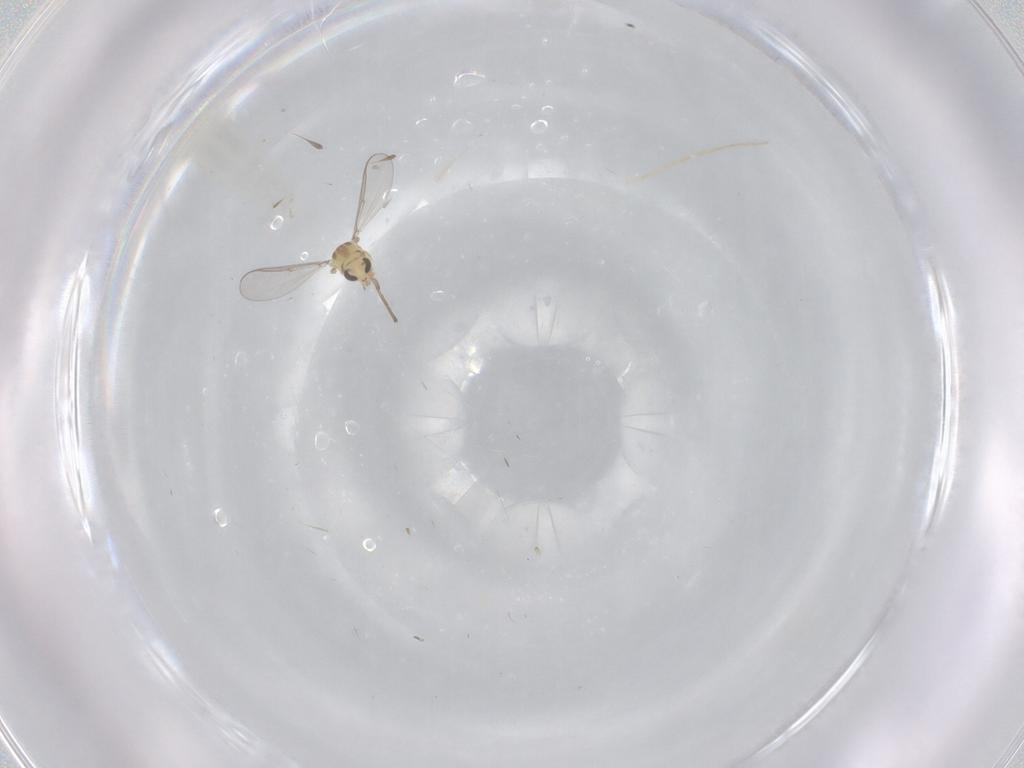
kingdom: Animalia
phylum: Arthropoda
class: Insecta
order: Diptera
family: Chironomidae
